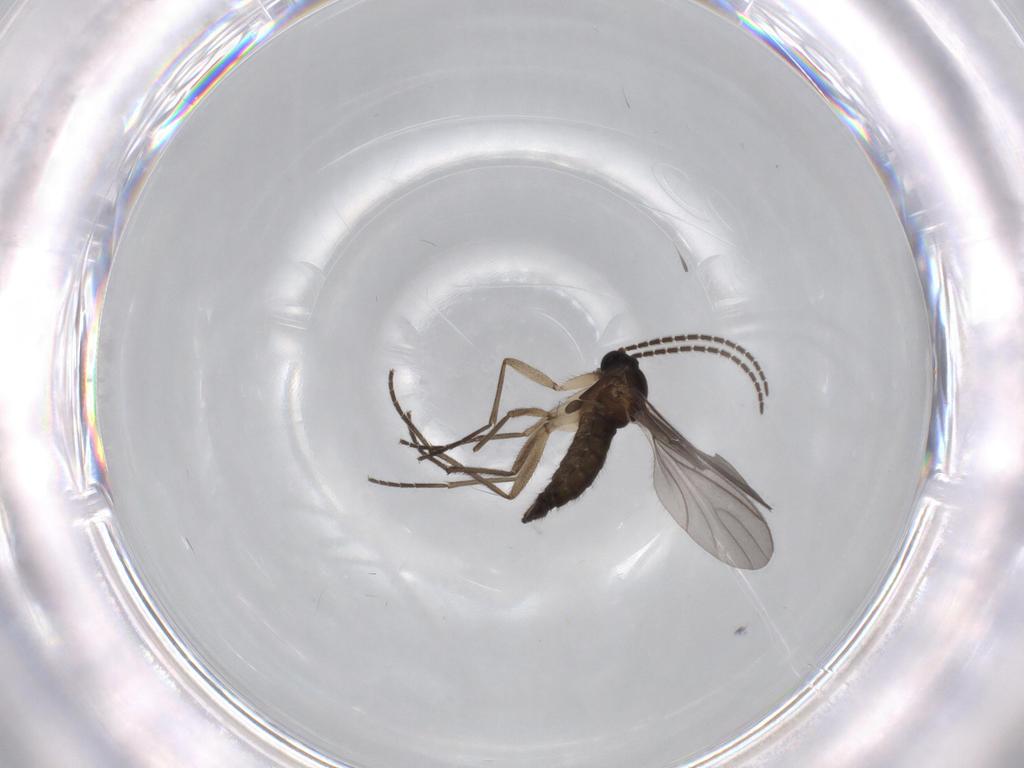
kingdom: Animalia
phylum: Arthropoda
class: Insecta
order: Diptera
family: Sciaridae
